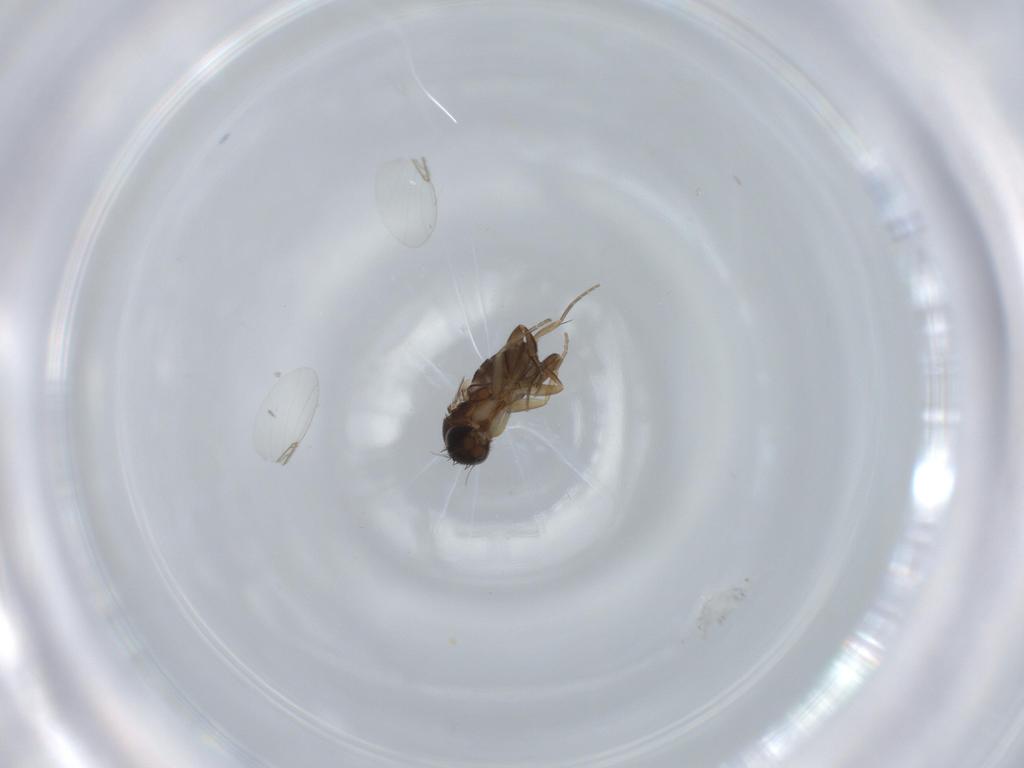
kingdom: Animalia
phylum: Arthropoda
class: Insecta
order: Diptera
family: Phoridae
